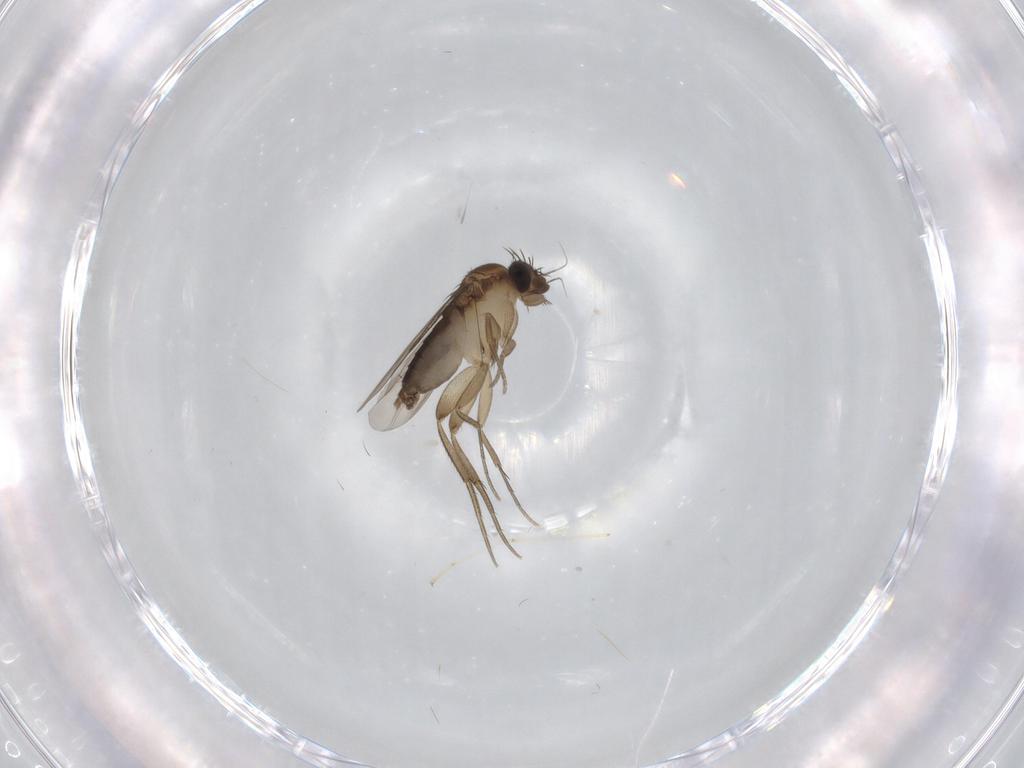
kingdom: Animalia
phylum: Arthropoda
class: Insecta
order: Diptera
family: Phoridae
